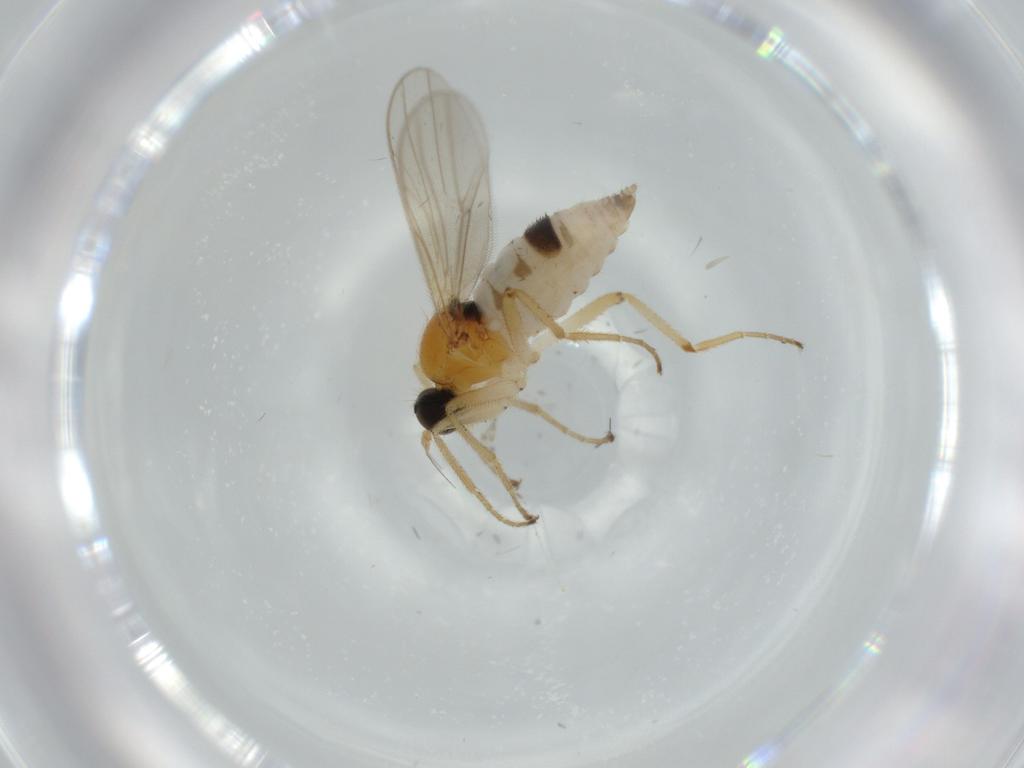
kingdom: Animalia
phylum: Arthropoda
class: Insecta
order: Diptera
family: Hybotidae
